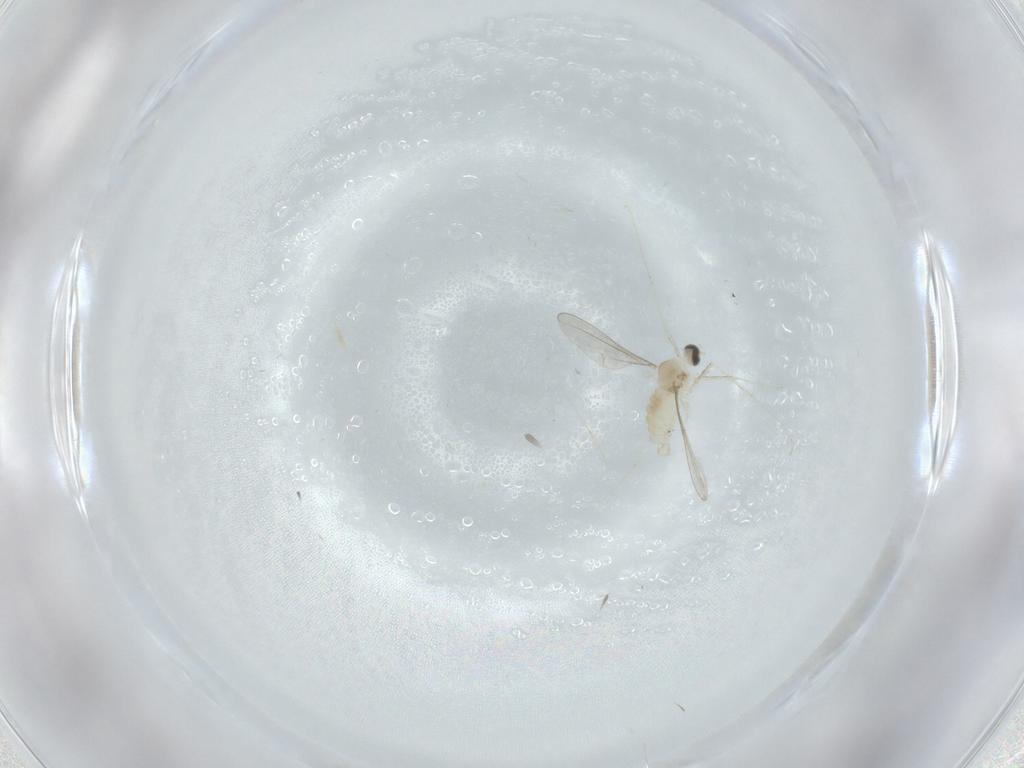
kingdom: Animalia
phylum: Arthropoda
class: Insecta
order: Diptera
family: Cecidomyiidae
